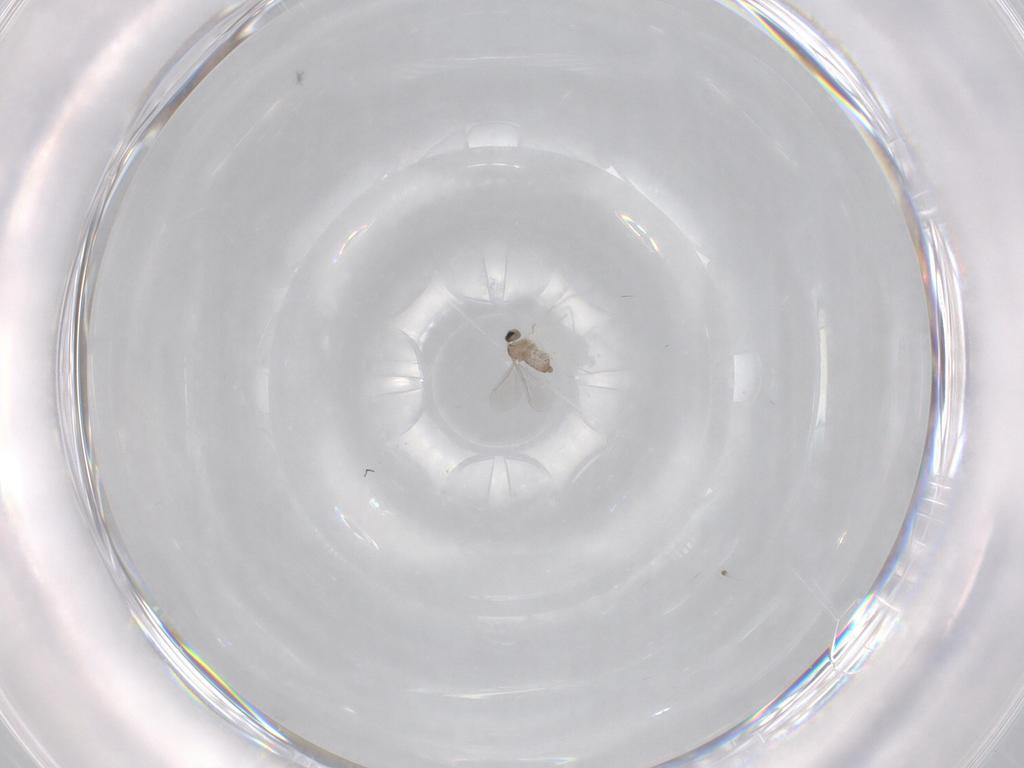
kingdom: Animalia
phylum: Arthropoda
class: Insecta
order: Diptera
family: Cecidomyiidae
